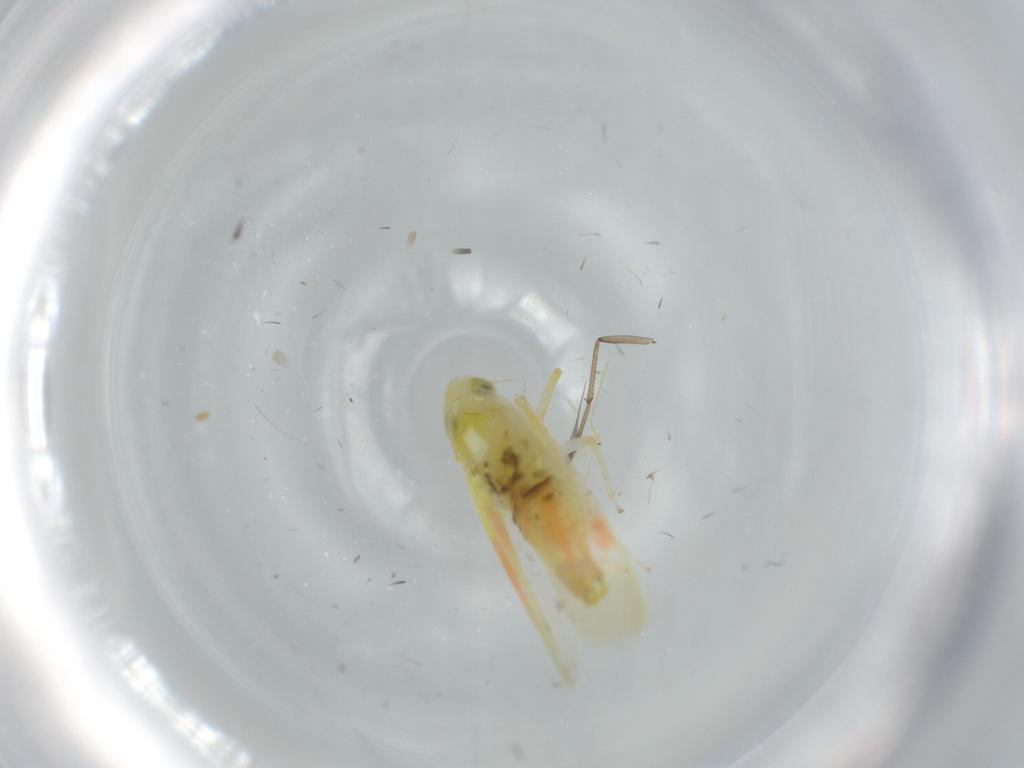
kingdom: Animalia
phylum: Arthropoda
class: Insecta
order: Hemiptera
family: Cicadellidae
